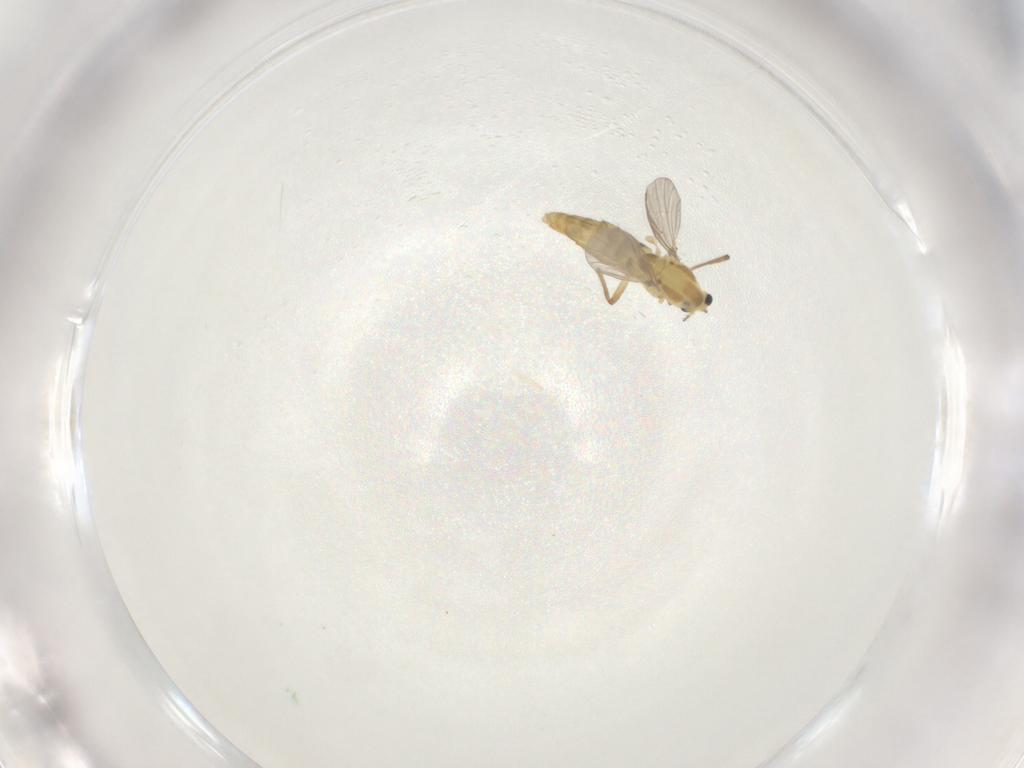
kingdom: Animalia
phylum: Arthropoda
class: Insecta
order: Diptera
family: Chironomidae
